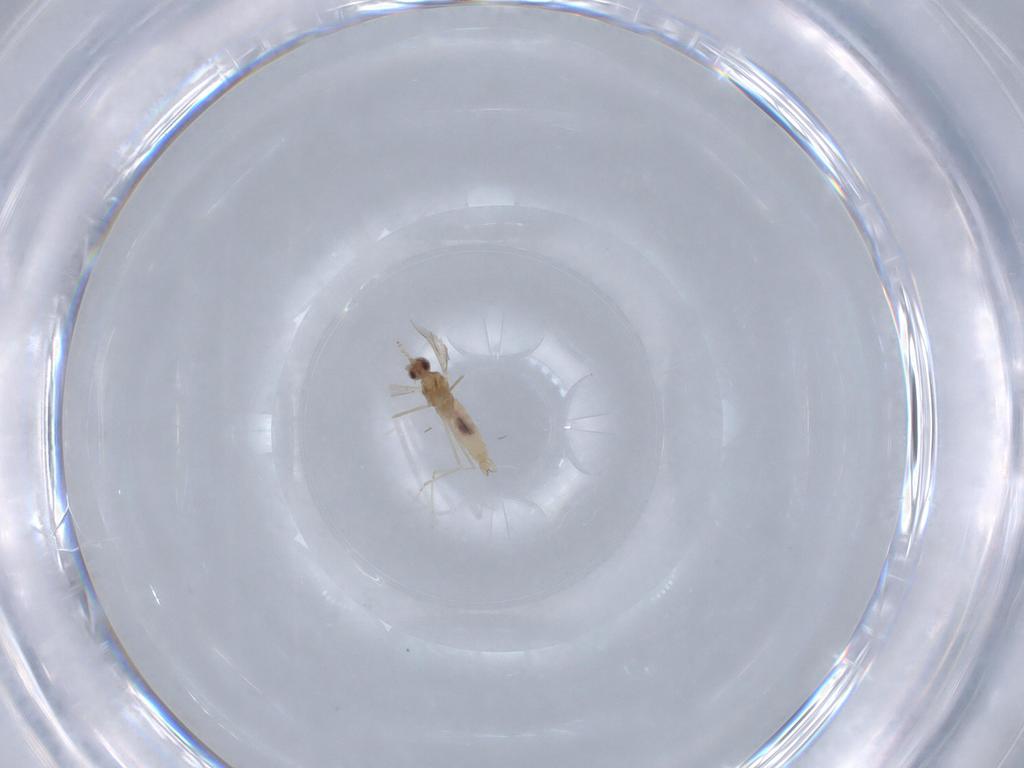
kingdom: Animalia
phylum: Arthropoda
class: Insecta
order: Diptera
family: Cecidomyiidae
